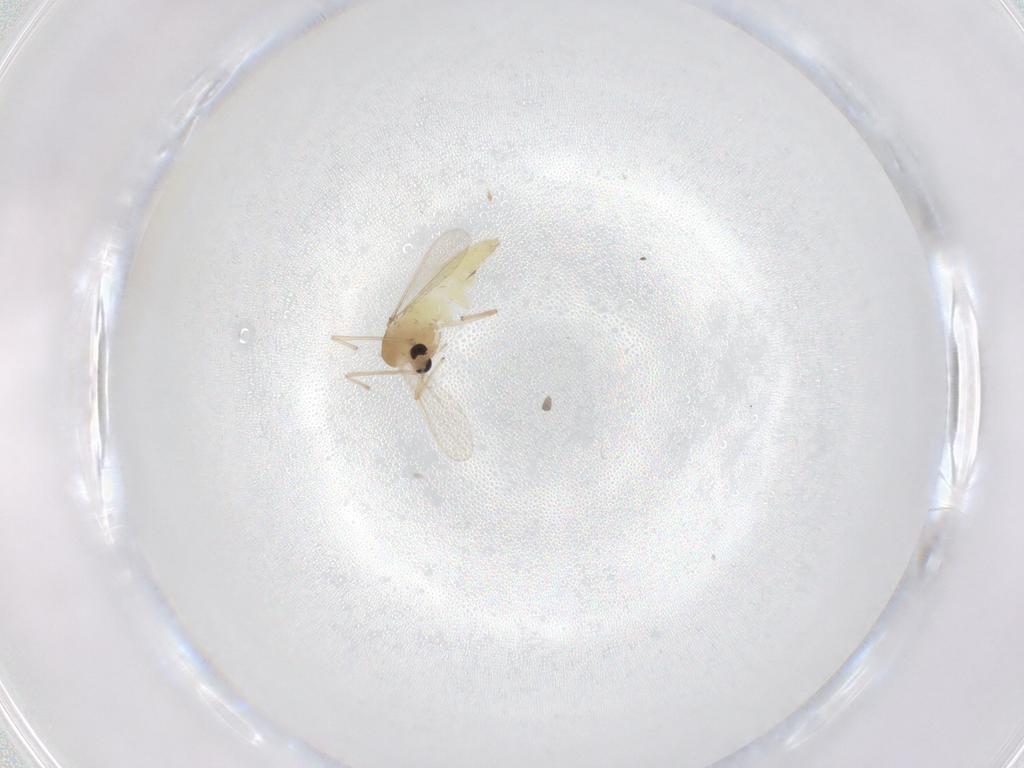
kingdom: Animalia
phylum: Arthropoda
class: Insecta
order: Diptera
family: Chironomidae
